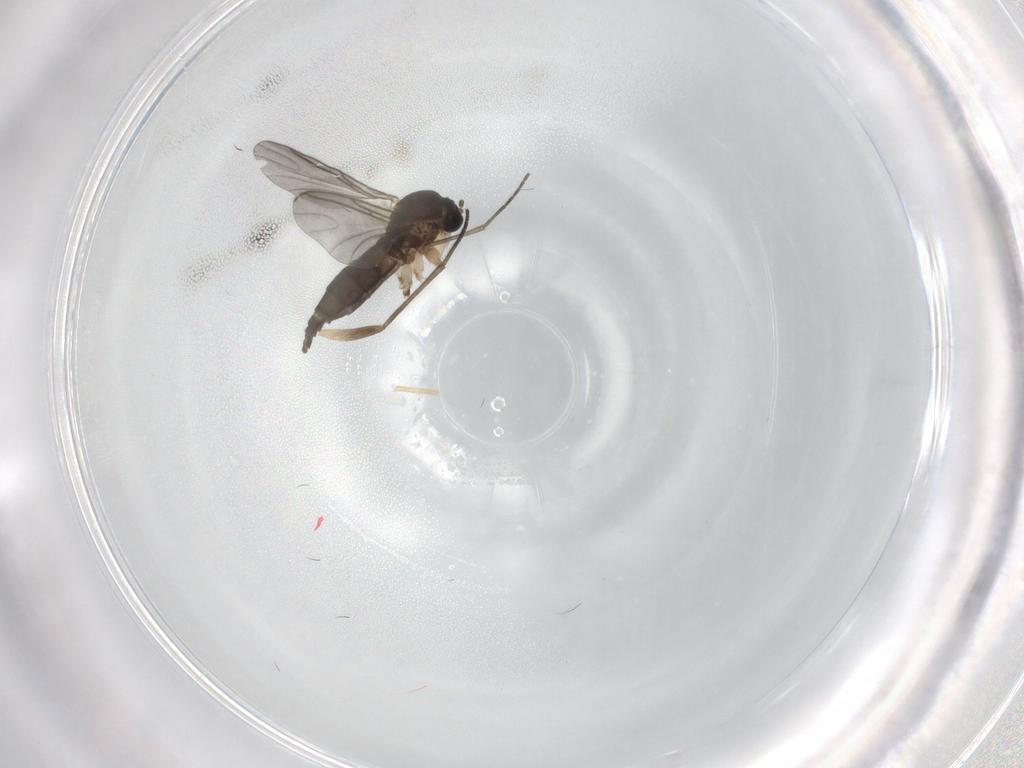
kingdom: Animalia
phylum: Arthropoda
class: Insecta
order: Diptera
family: Sciaridae
